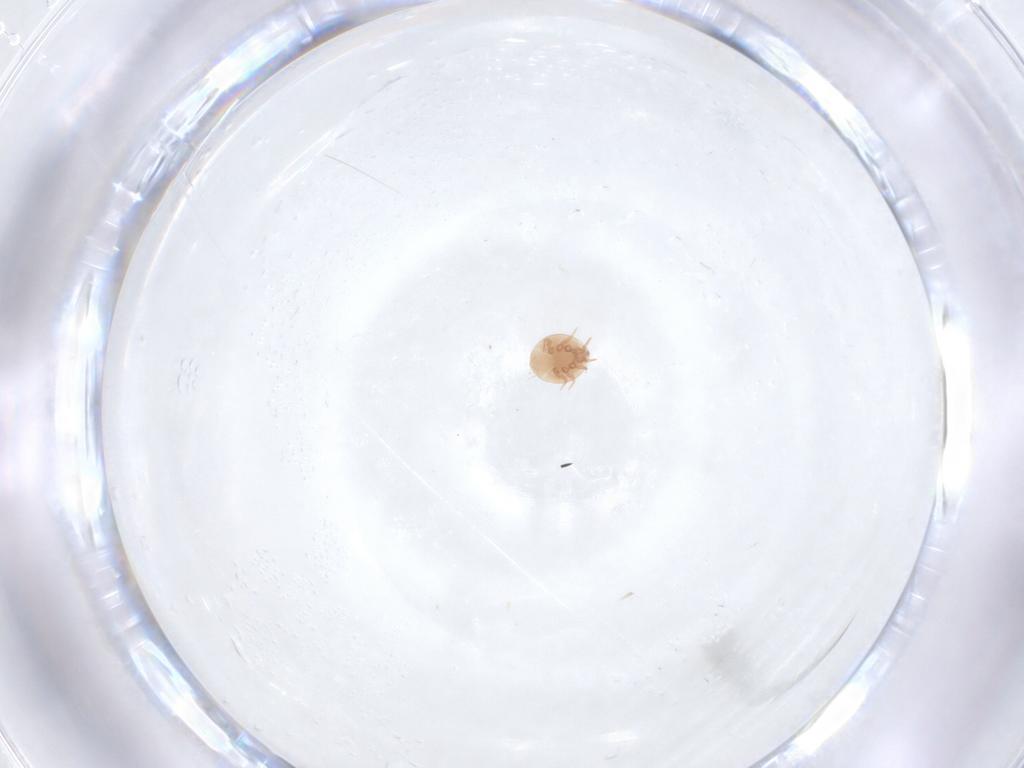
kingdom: Animalia
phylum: Arthropoda
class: Arachnida
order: Mesostigmata
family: Trematuridae
